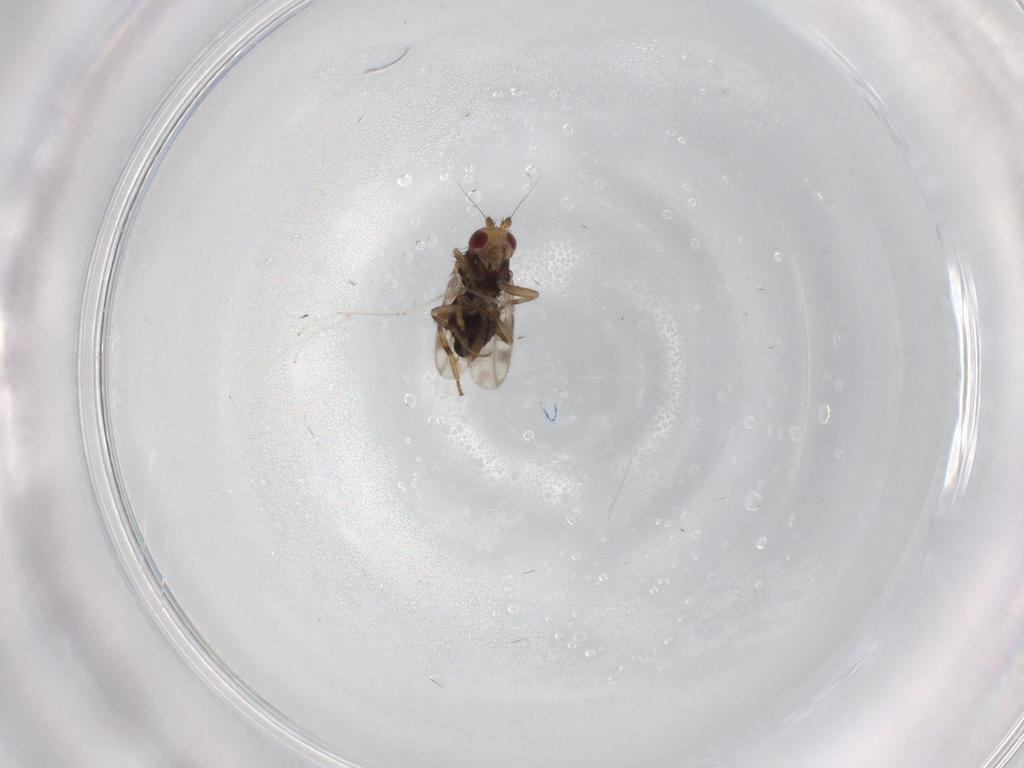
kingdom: Animalia
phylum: Arthropoda
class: Insecta
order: Diptera
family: Sphaeroceridae
